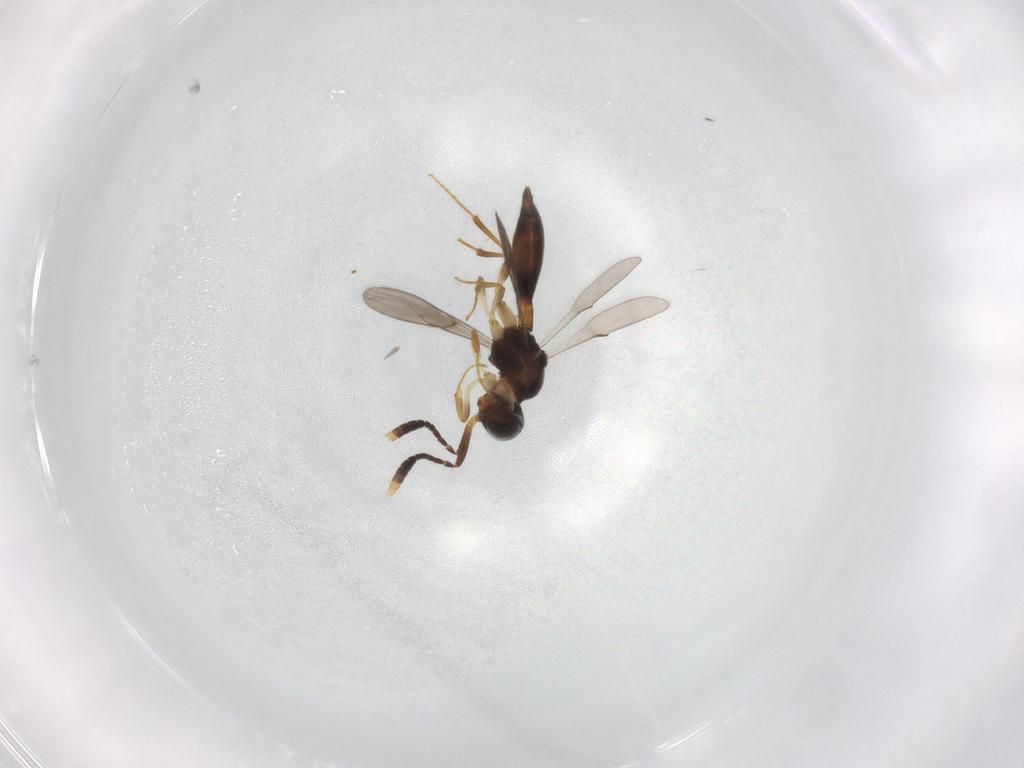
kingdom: Animalia
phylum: Arthropoda
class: Insecta
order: Hymenoptera
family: Scelionidae
